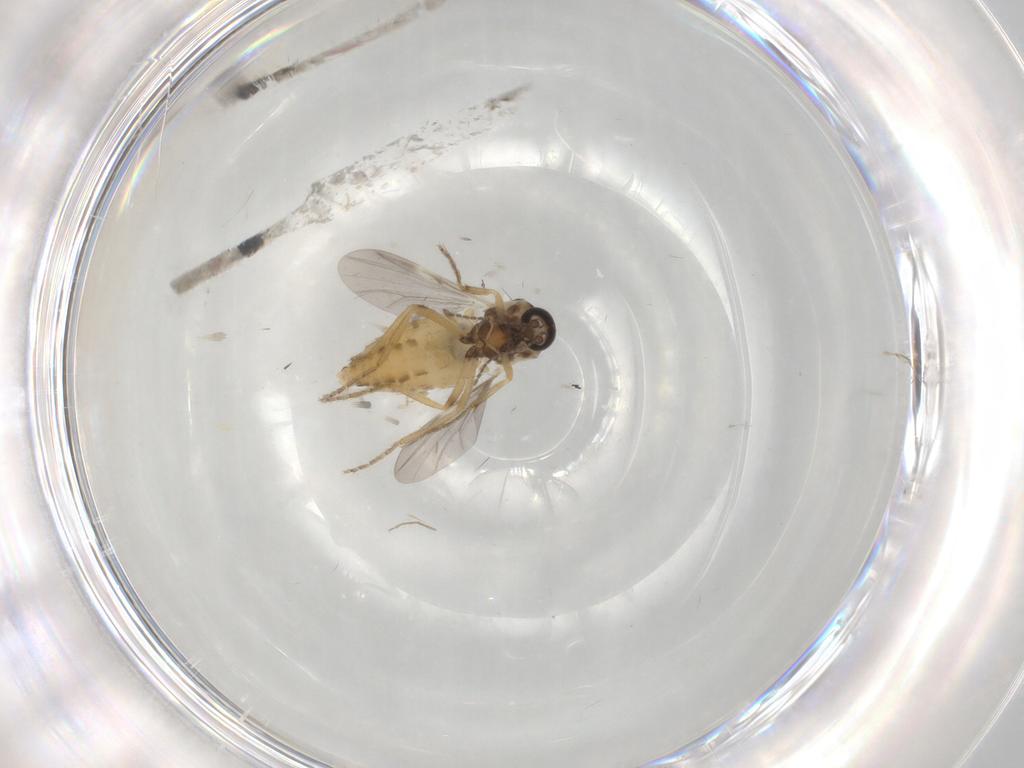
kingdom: Animalia
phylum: Arthropoda
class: Insecta
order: Diptera
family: Ceratopogonidae
